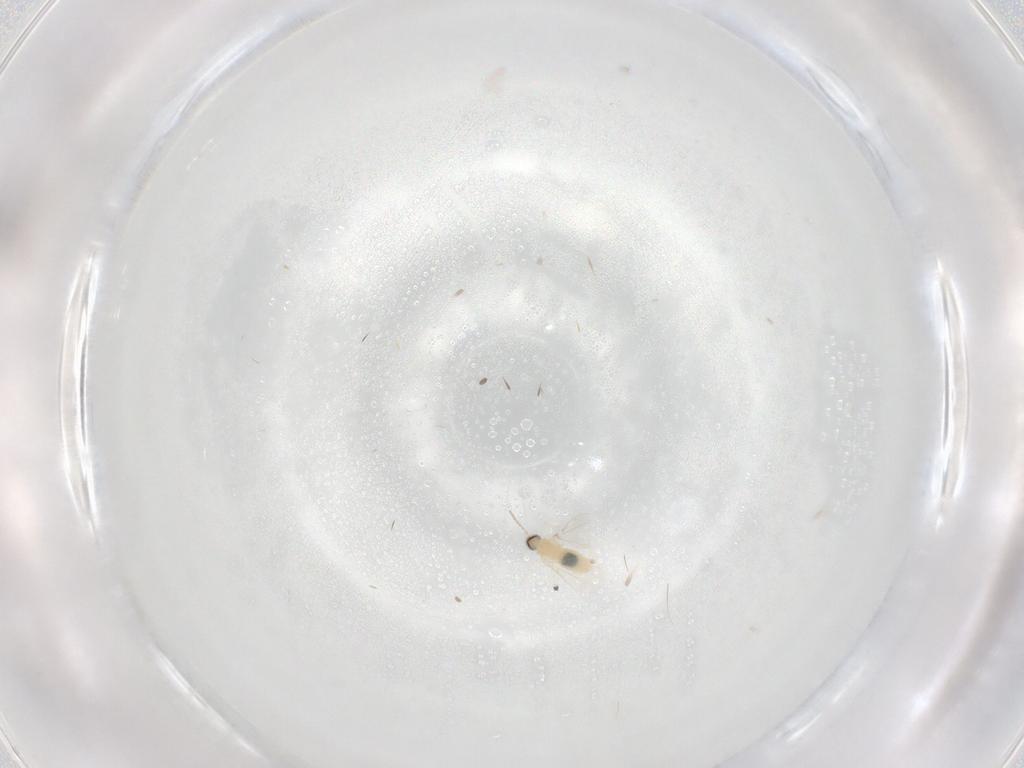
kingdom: Animalia
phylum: Arthropoda
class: Insecta
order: Diptera
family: Cecidomyiidae
